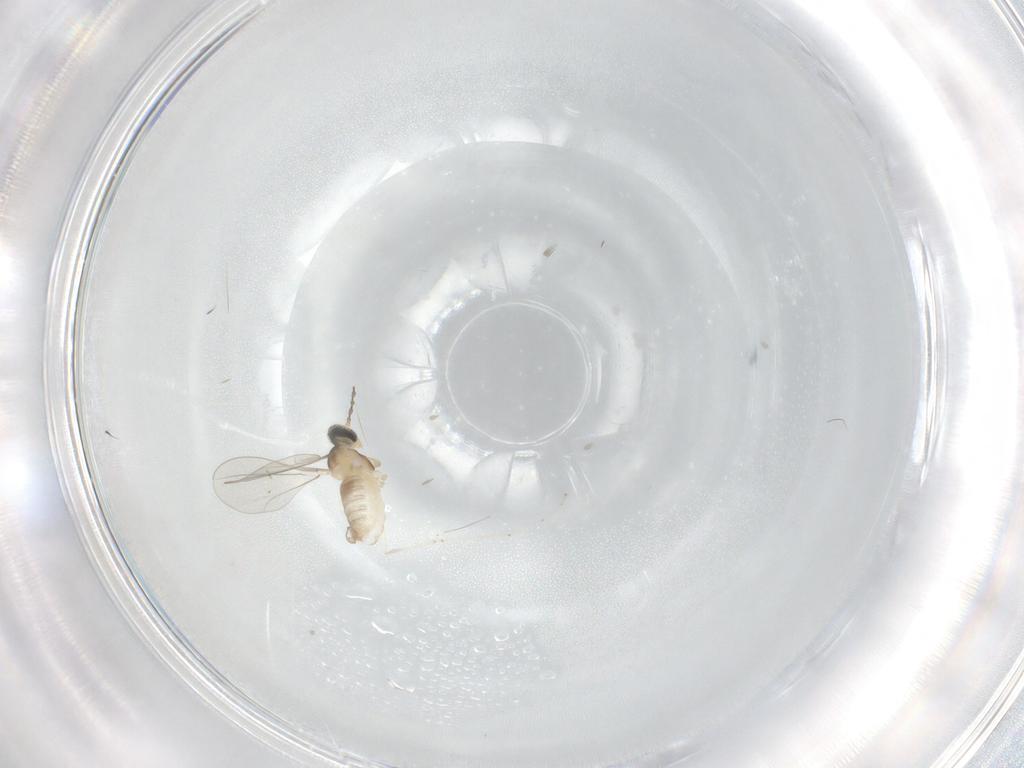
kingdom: Animalia
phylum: Arthropoda
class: Insecta
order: Diptera
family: Cecidomyiidae
